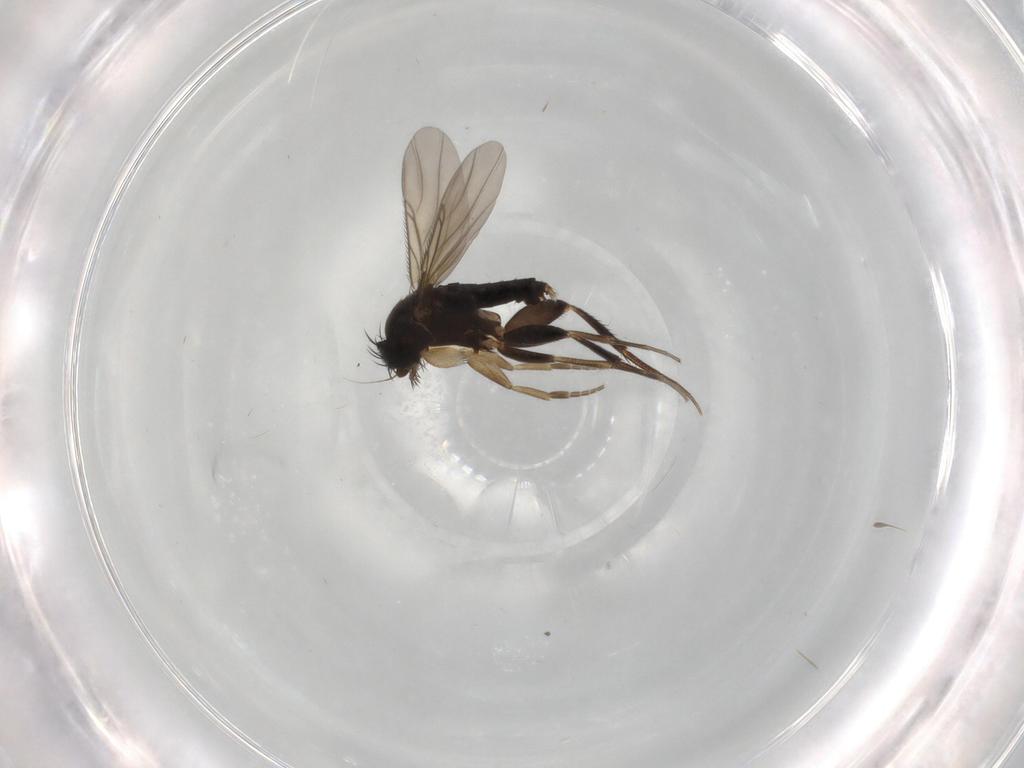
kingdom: Animalia
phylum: Arthropoda
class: Insecta
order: Diptera
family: Phoridae
